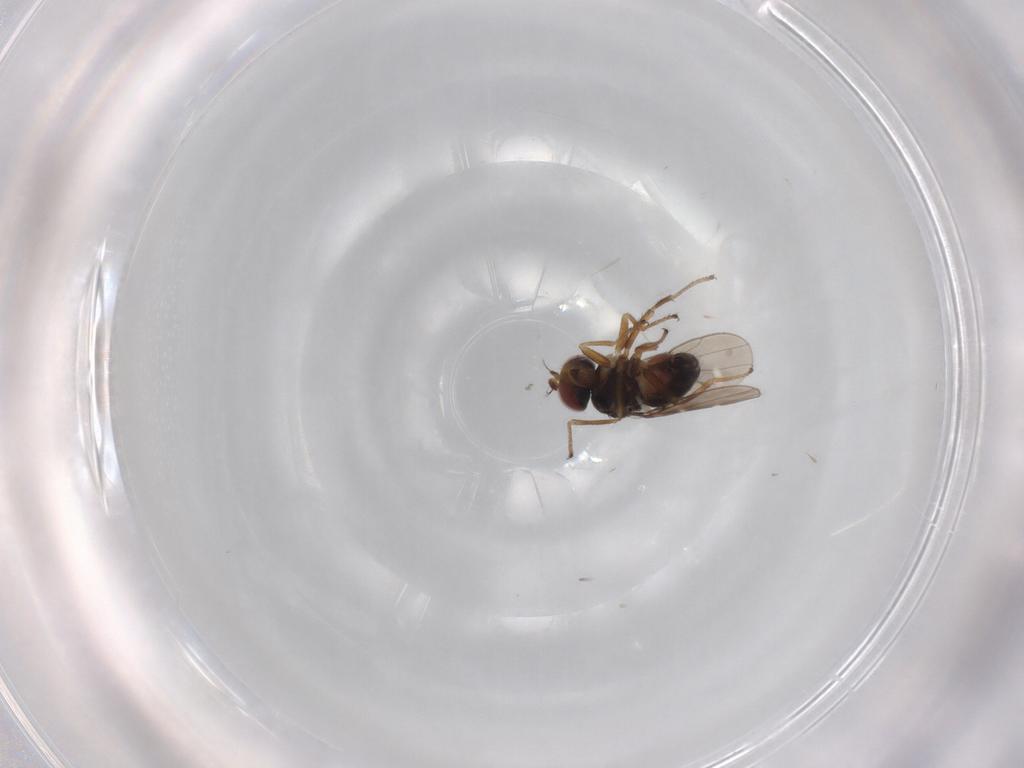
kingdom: Animalia
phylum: Arthropoda
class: Insecta
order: Diptera
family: Ephydridae
